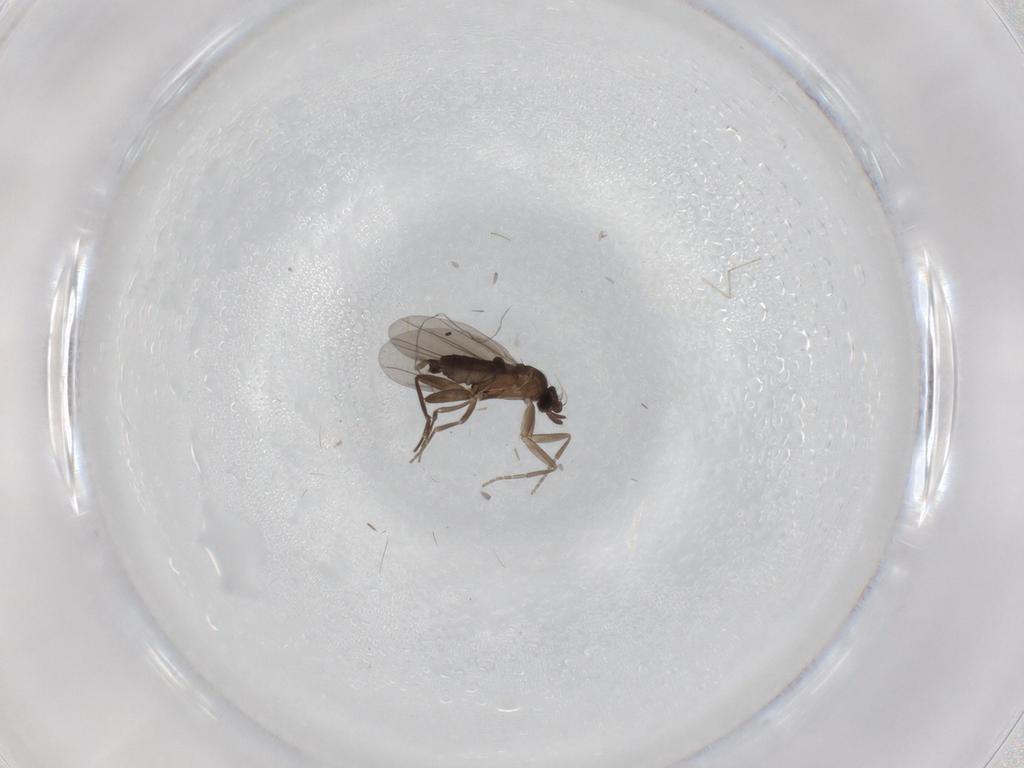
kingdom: Animalia
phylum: Arthropoda
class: Insecta
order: Diptera
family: Cecidomyiidae
